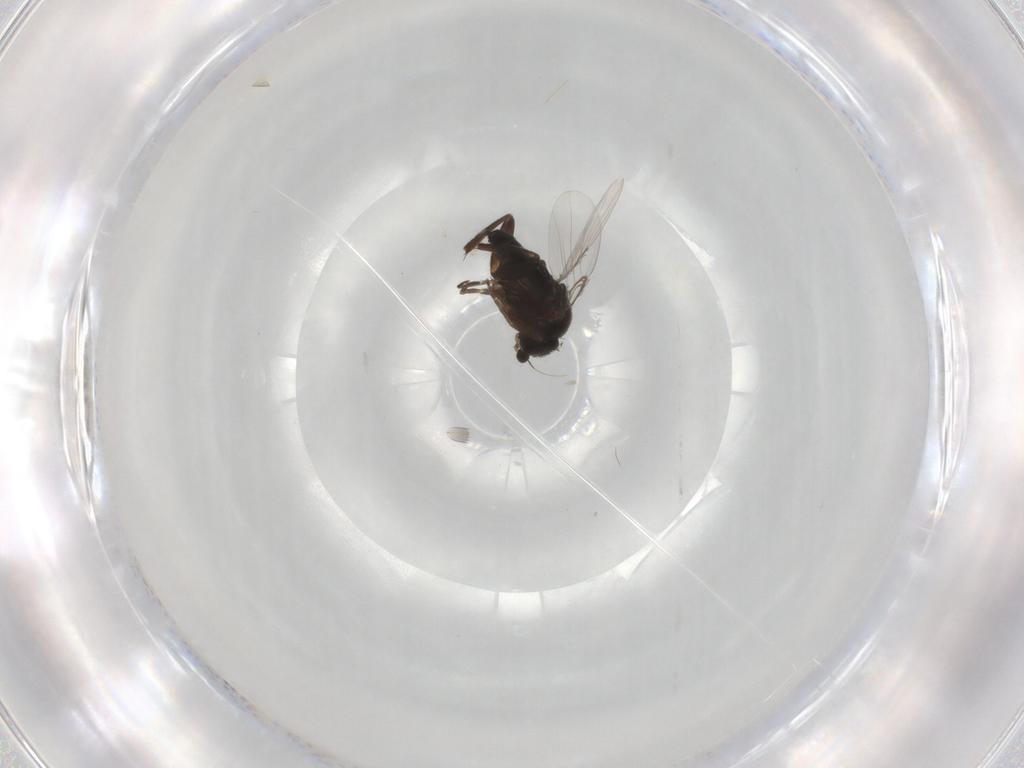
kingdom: Animalia
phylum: Arthropoda
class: Insecta
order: Diptera
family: Phoridae
